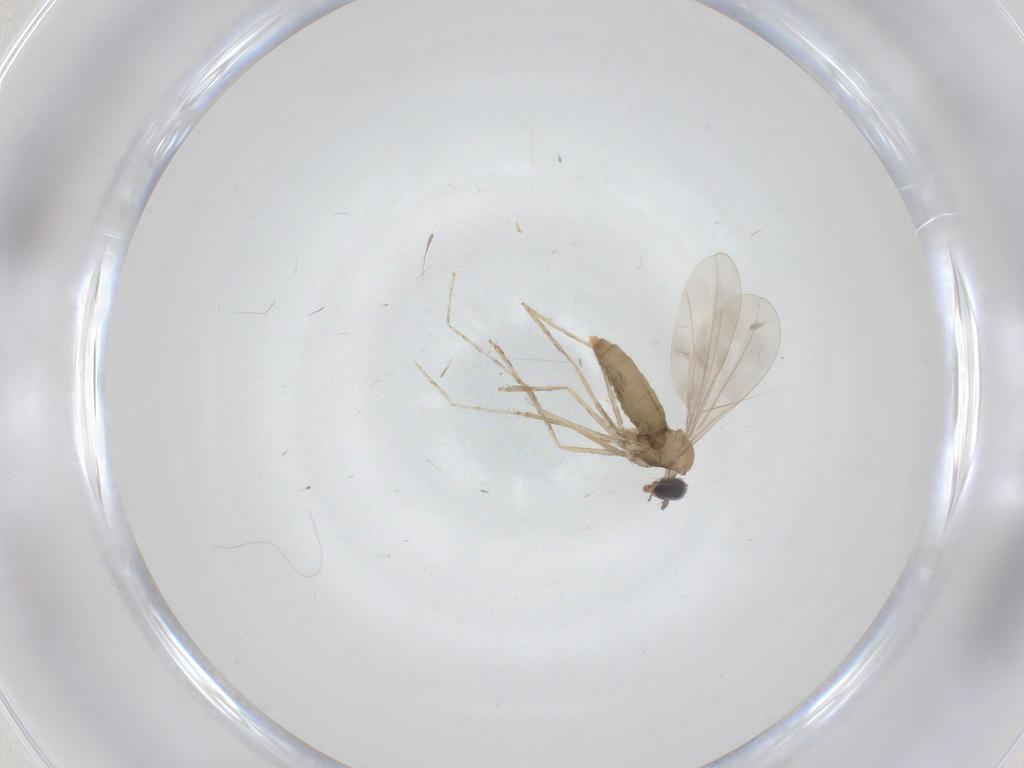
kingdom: Animalia
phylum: Arthropoda
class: Insecta
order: Diptera
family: Cecidomyiidae
